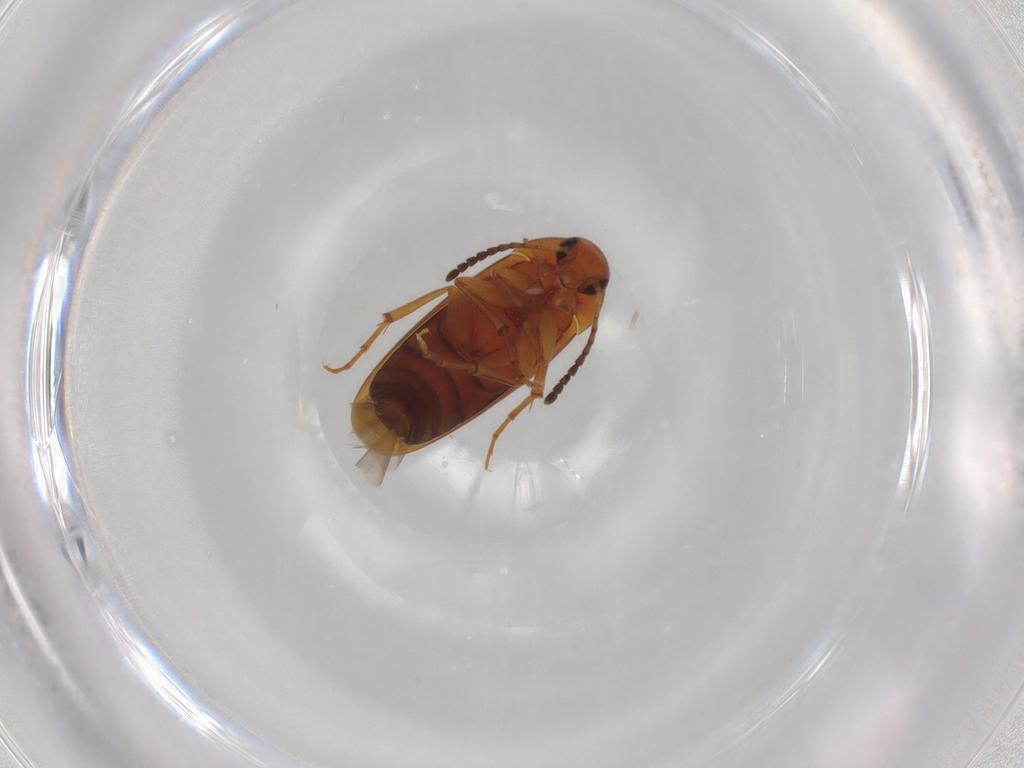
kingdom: Animalia
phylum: Arthropoda
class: Insecta
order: Coleoptera
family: Scraptiidae
